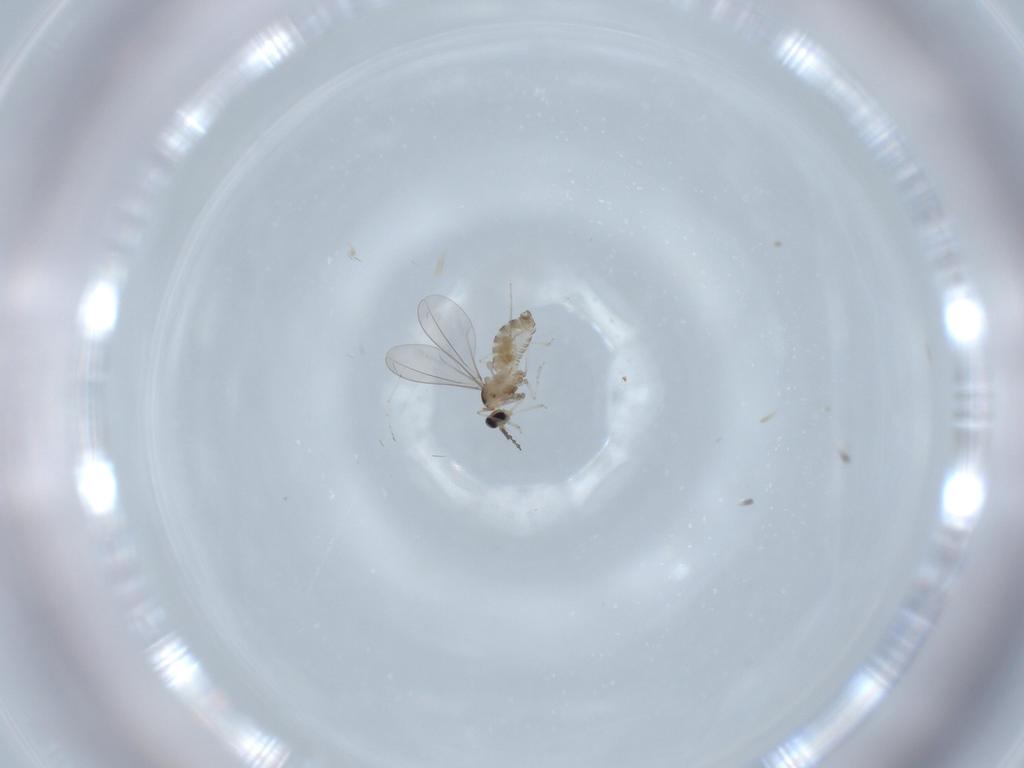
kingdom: Animalia
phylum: Arthropoda
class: Insecta
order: Diptera
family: Cecidomyiidae
